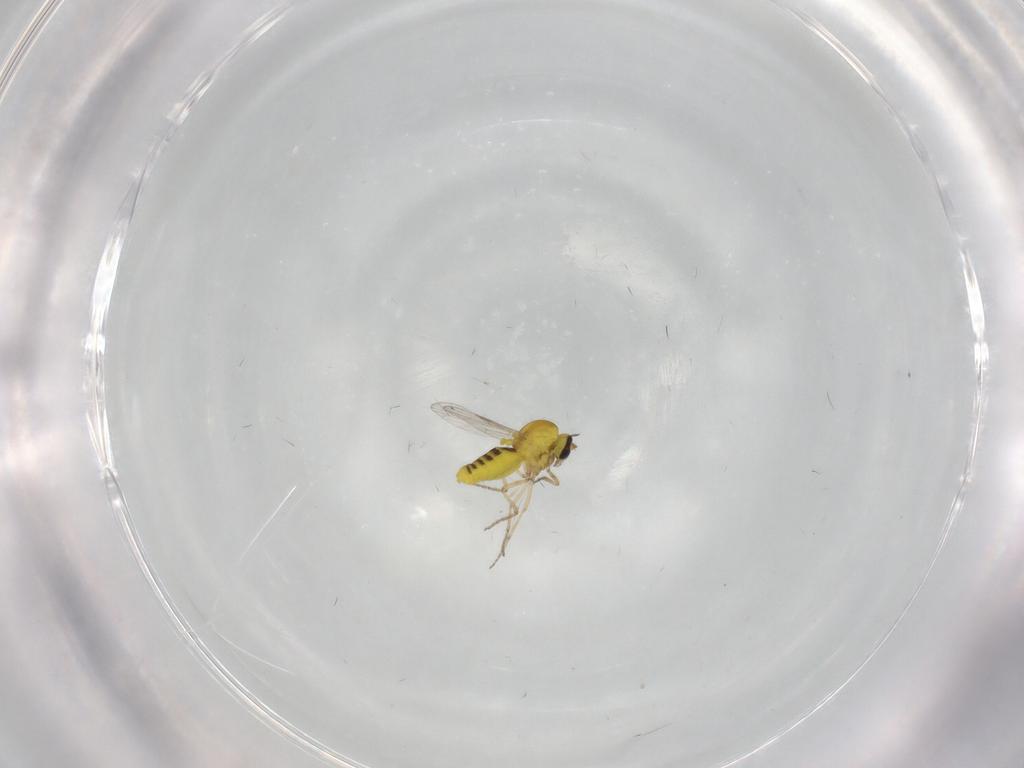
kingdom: Animalia
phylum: Arthropoda
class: Insecta
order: Diptera
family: Ceratopogonidae
